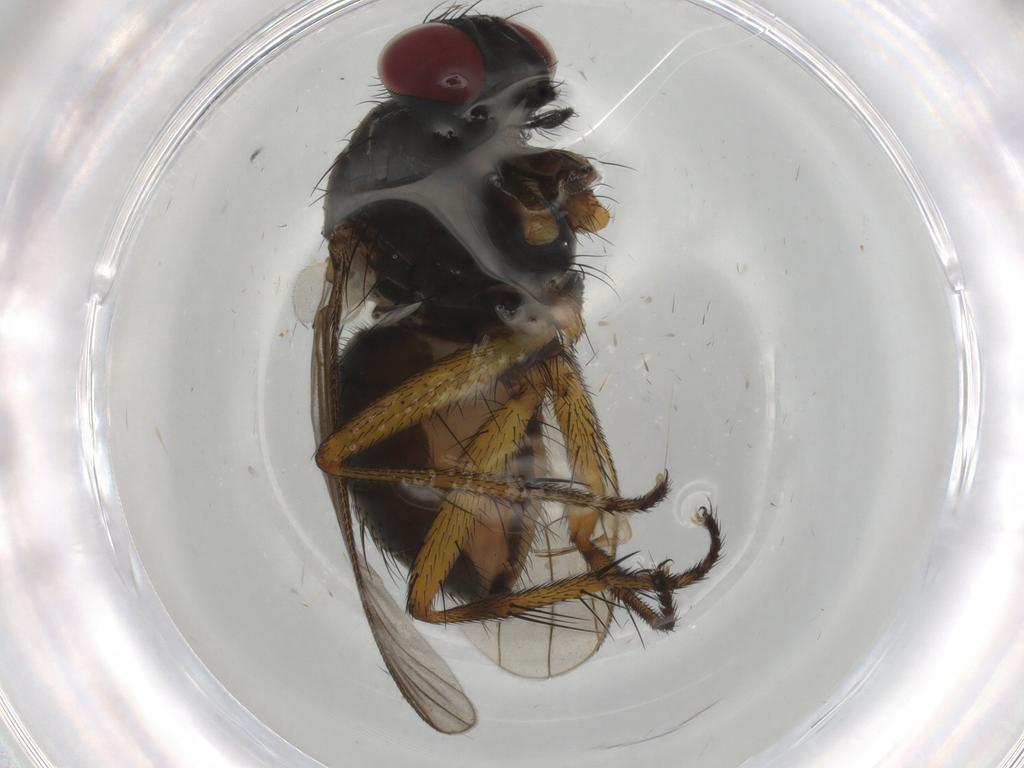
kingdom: Animalia
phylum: Arthropoda
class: Insecta
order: Diptera
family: Muscidae
